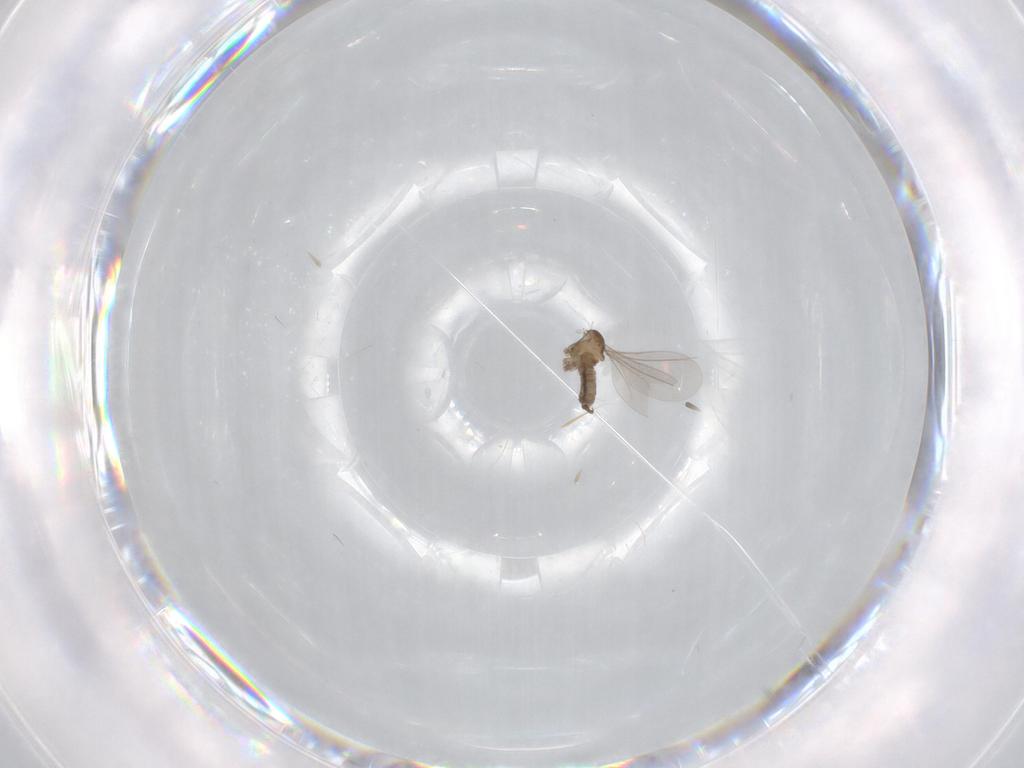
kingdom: Animalia
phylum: Arthropoda
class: Insecta
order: Diptera
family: Cecidomyiidae
